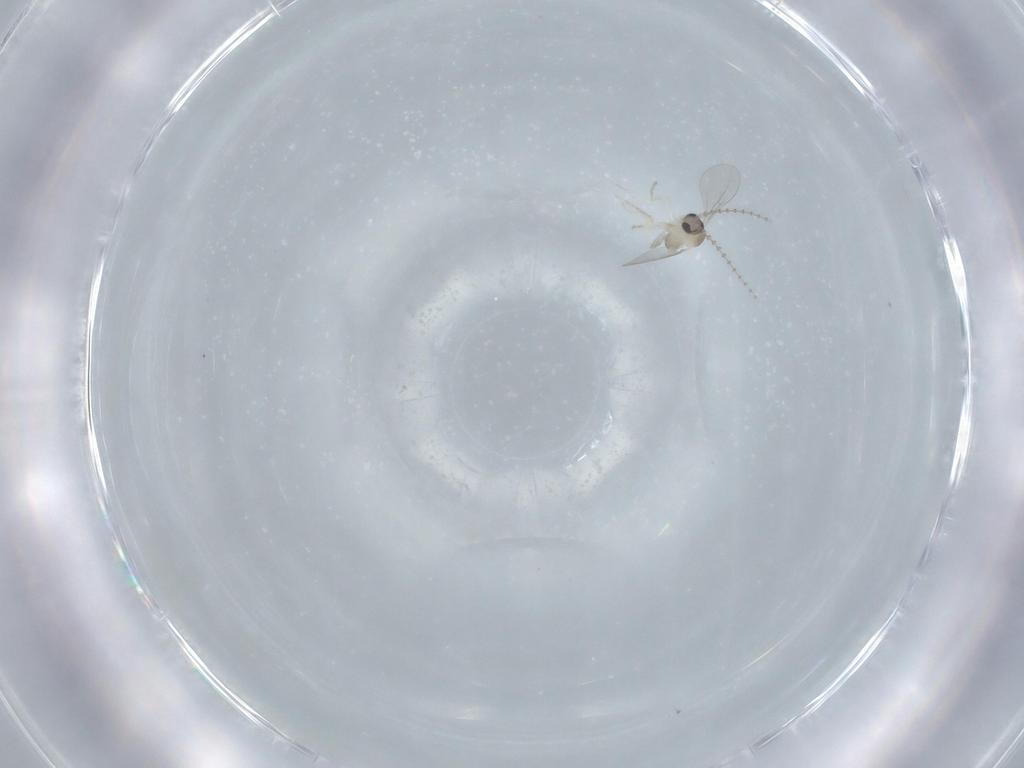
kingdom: Animalia
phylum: Arthropoda
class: Insecta
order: Diptera
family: Cecidomyiidae
